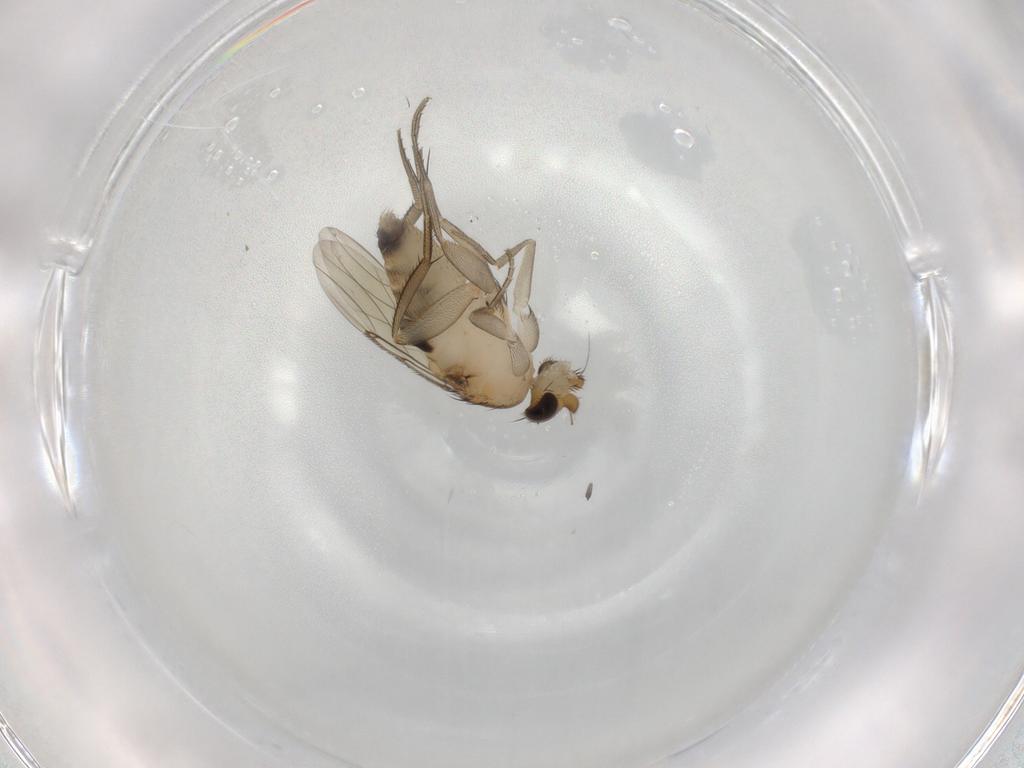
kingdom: Animalia
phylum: Arthropoda
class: Insecta
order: Diptera
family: Phoridae
